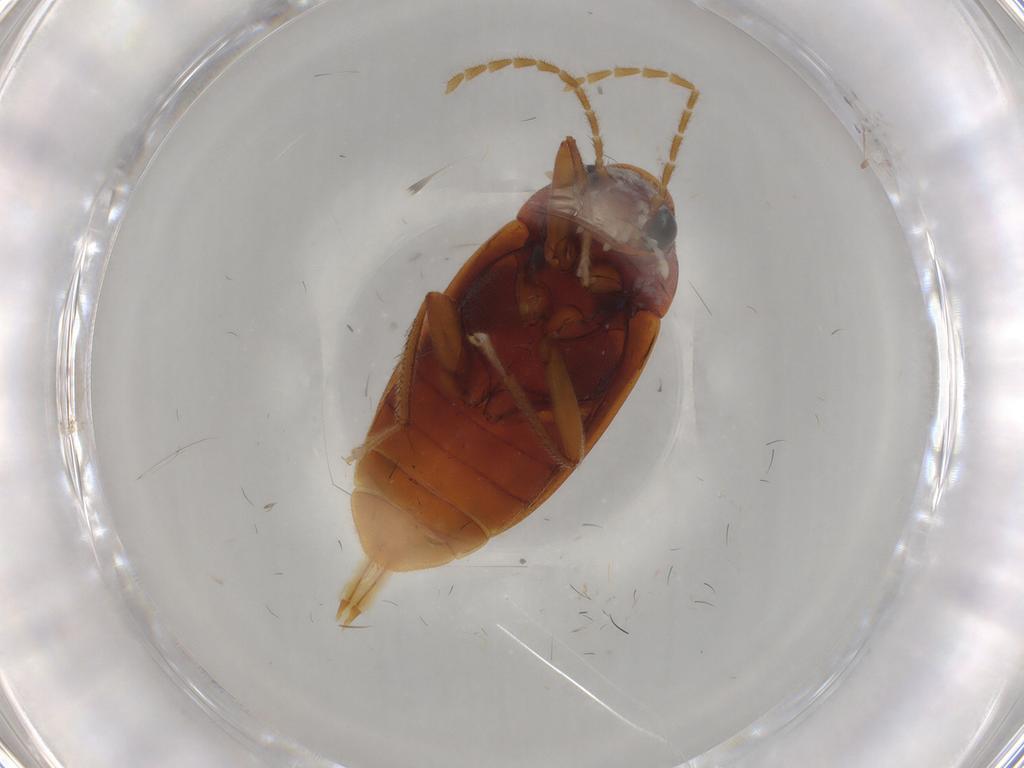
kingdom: Animalia
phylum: Arthropoda
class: Insecta
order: Coleoptera
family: Ptilodactylidae
